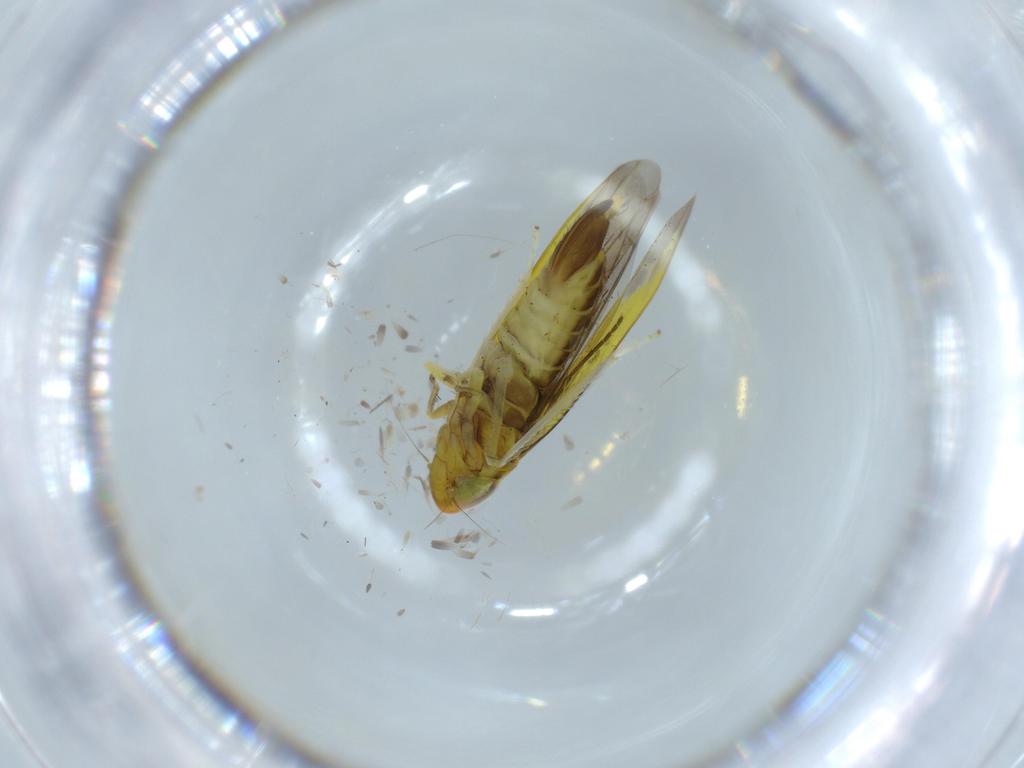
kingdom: Animalia
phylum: Arthropoda
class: Insecta
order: Hemiptera
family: Cicadellidae
